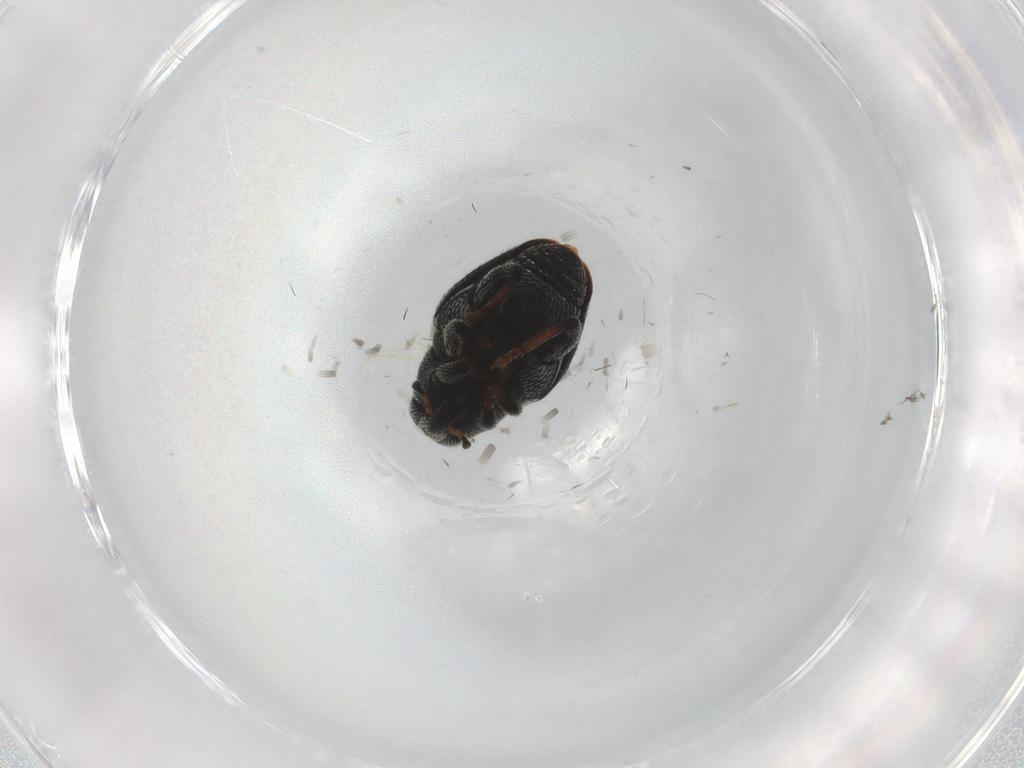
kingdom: Animalia
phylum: Arthropoda
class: Insecta
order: Coleoptera
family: Curculionidae
